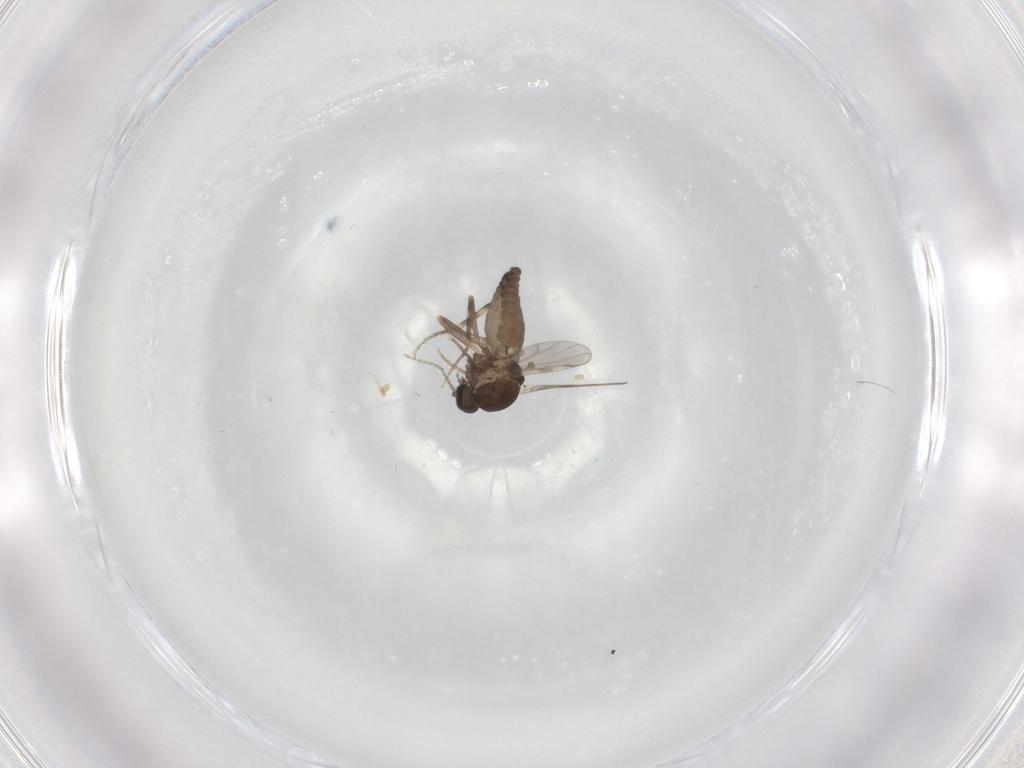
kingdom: Animalia
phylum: Arthropoda
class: Insecta
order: Diptera
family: Ceratopogonidae
